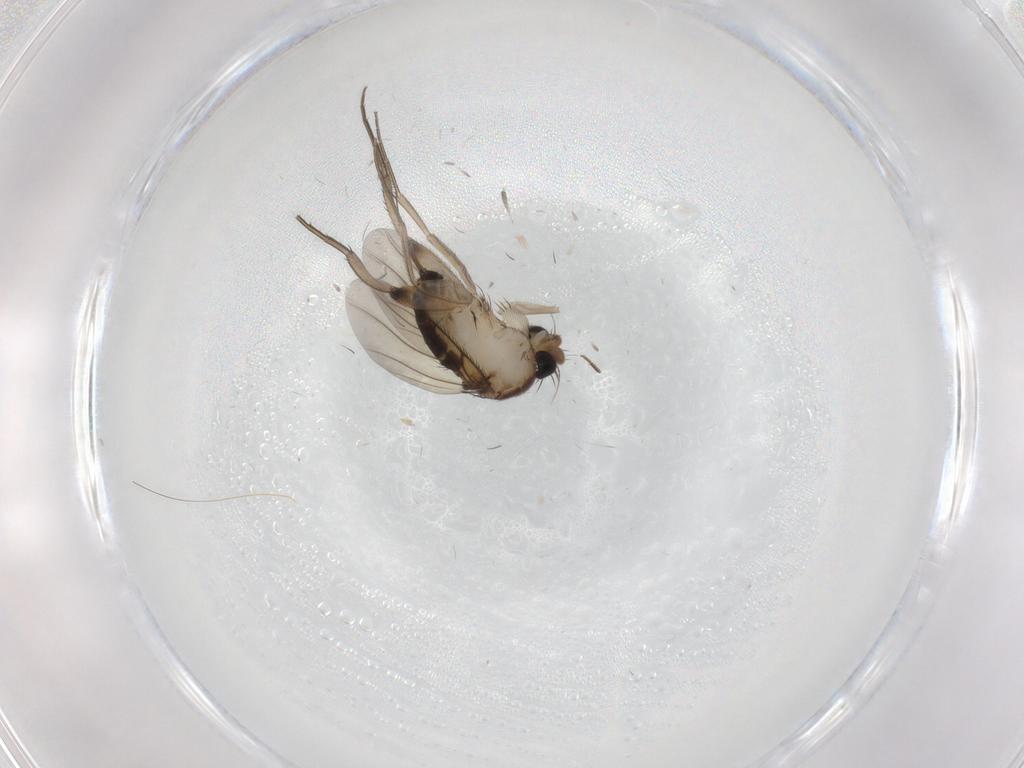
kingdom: Animalia
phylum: Arthropoda
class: Insecta
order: Diptera
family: Phoridae
